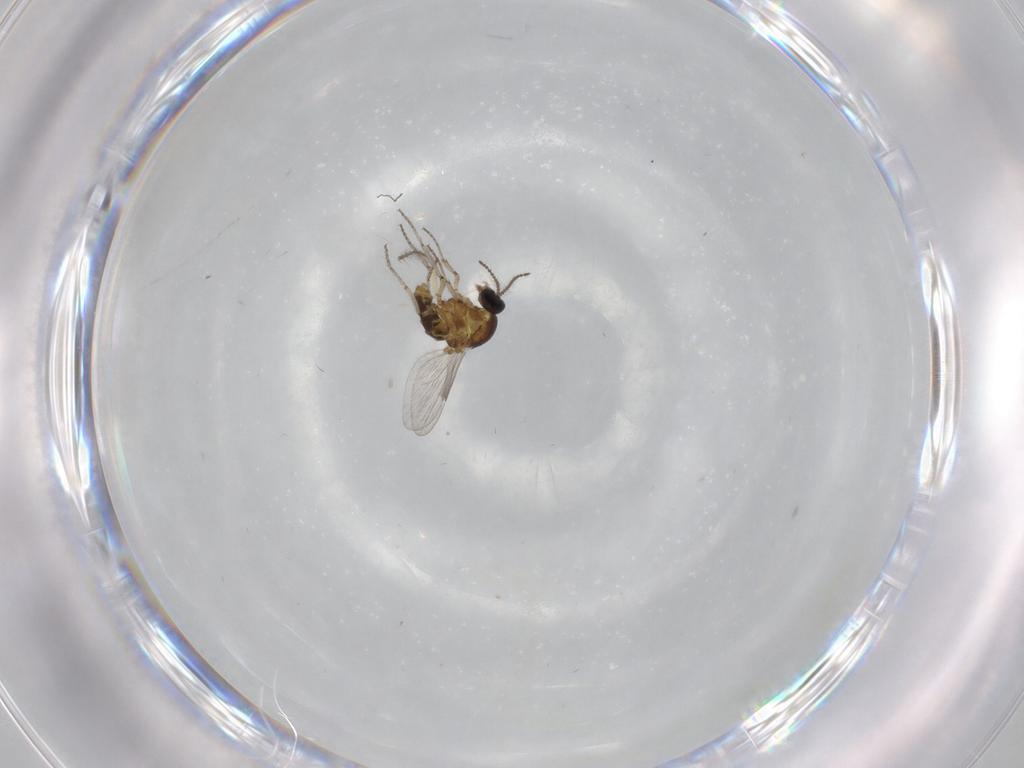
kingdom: Animalia
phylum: Arthropoda
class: Insecta
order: Diptera
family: Ceratopogonidae
